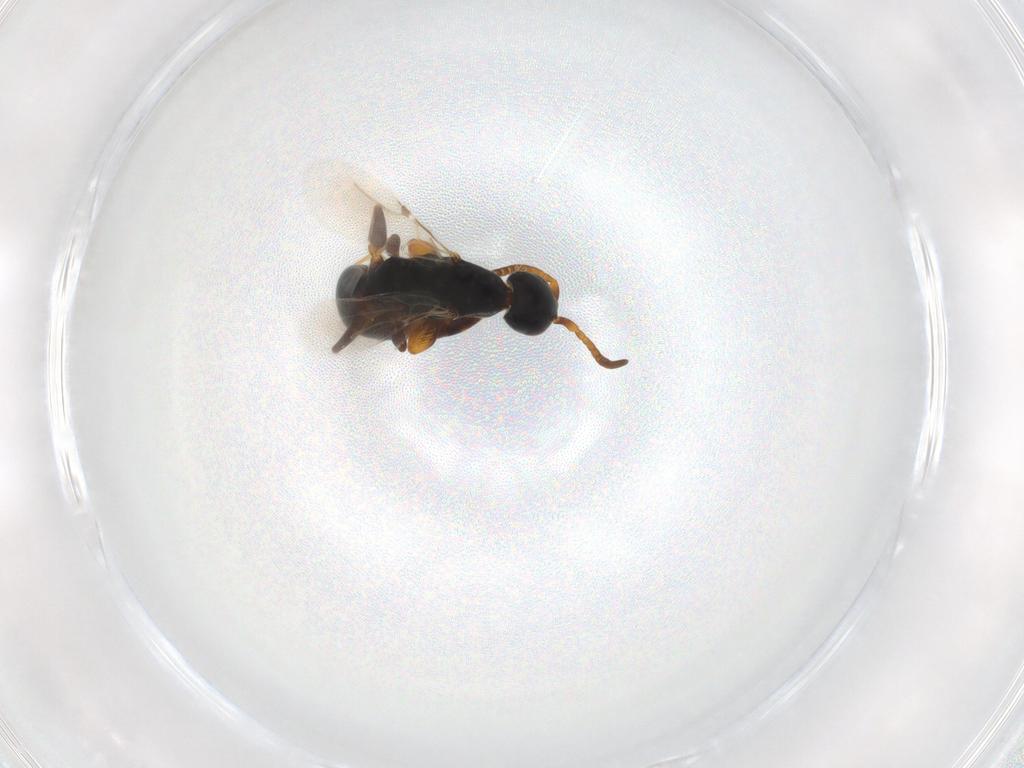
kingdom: Animalia
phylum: Arthropoda
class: Insecta
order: Hymenoptera
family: Bethylidae
